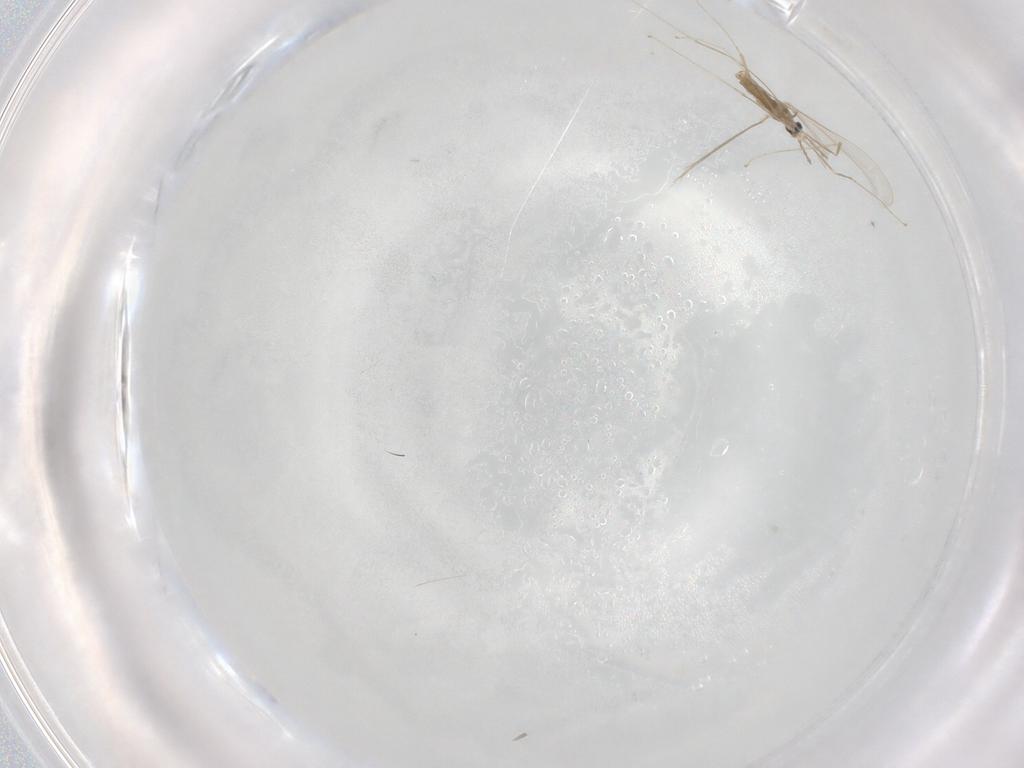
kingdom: Animalia
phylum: Arthropoda
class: Insecta
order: Diptera
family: Cecidomyiidae
